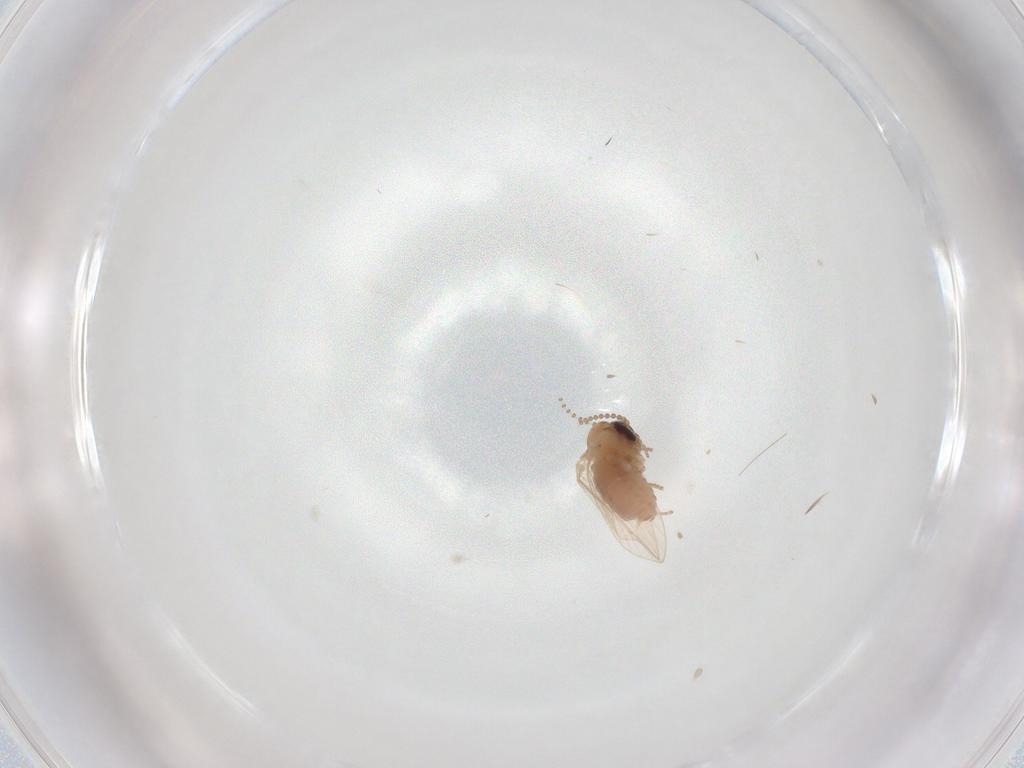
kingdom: Animalia
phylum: Arthropoda
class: Insecta
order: Diptera
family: Psychodidae
